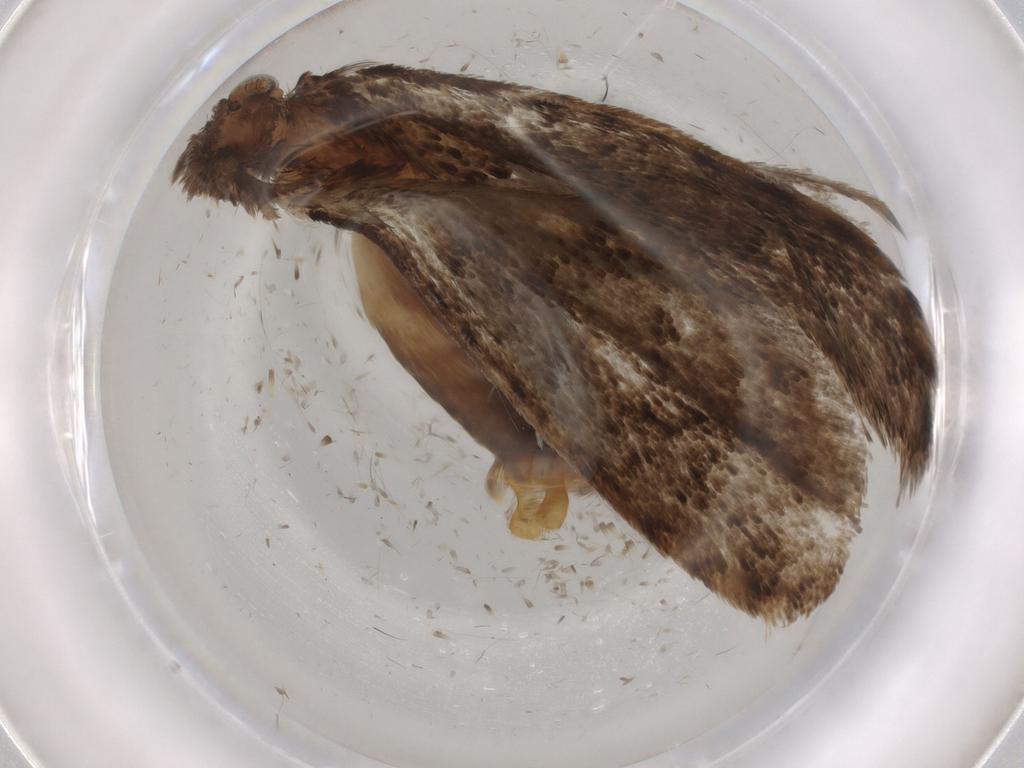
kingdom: Animalia
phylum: Arthropoda
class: Insecta
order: Lepidoptera
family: Tineidae
